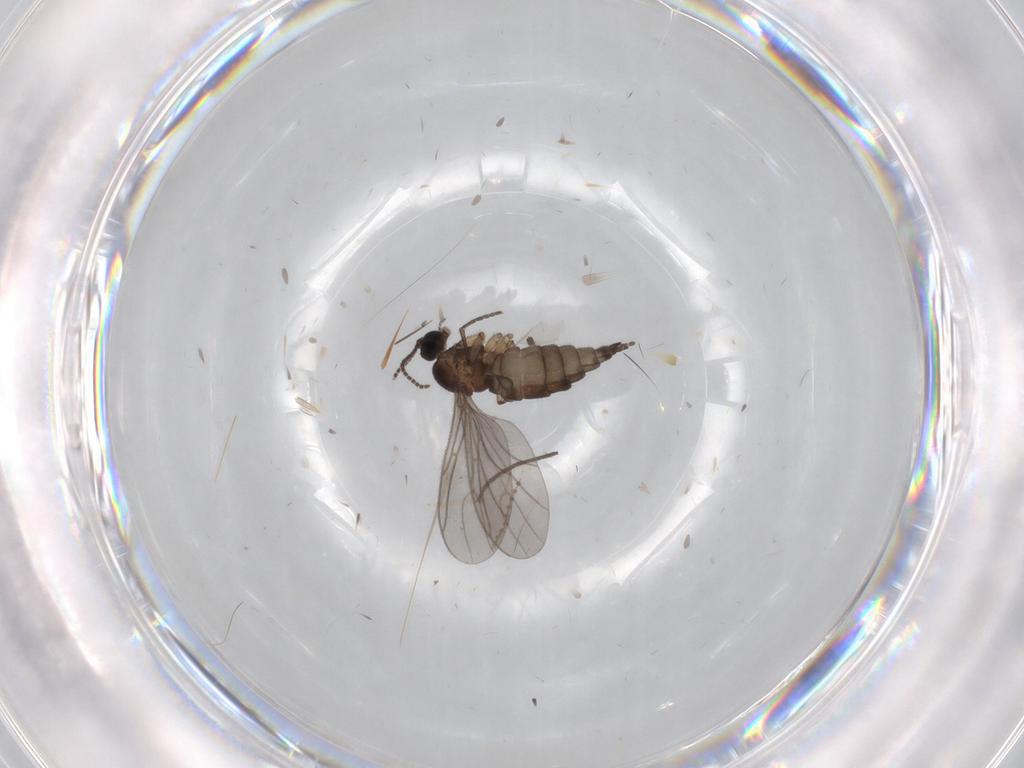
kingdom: Animalia
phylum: Arthropoda
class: Insecta
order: Diptera
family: Sciaridae
